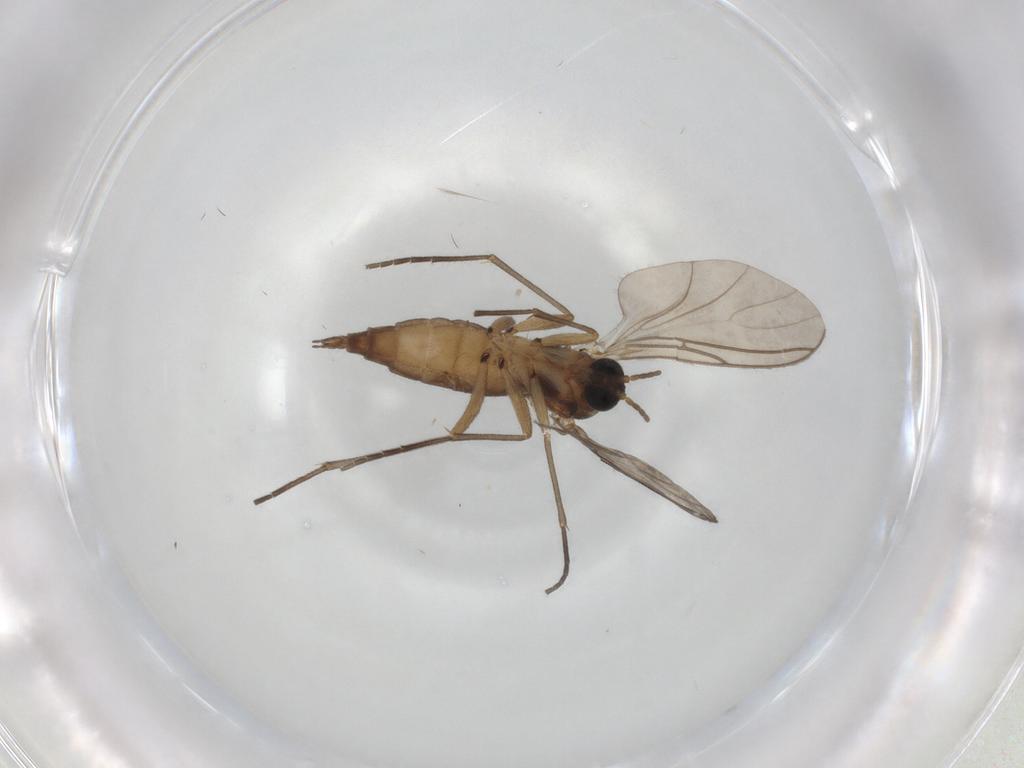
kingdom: Animalia
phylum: Arthropoda
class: Insecta
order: Diptera
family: Sciaridae
